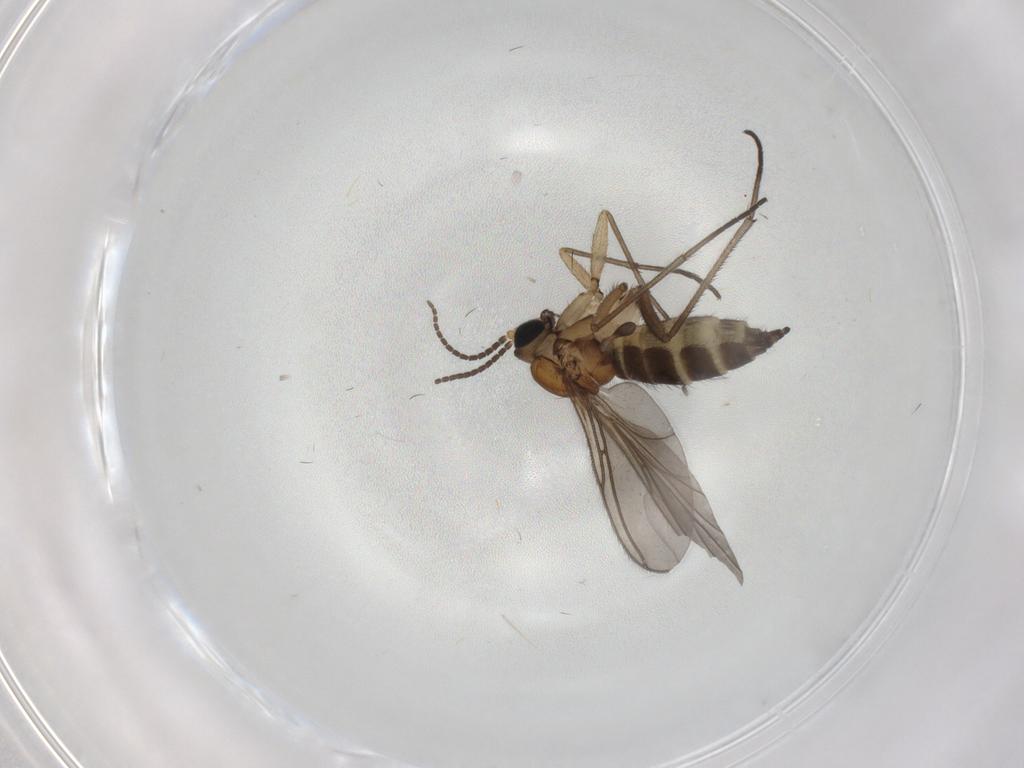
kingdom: Animalia
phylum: Arthropoda
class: Insecta
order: Diptera
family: Sciaridae
